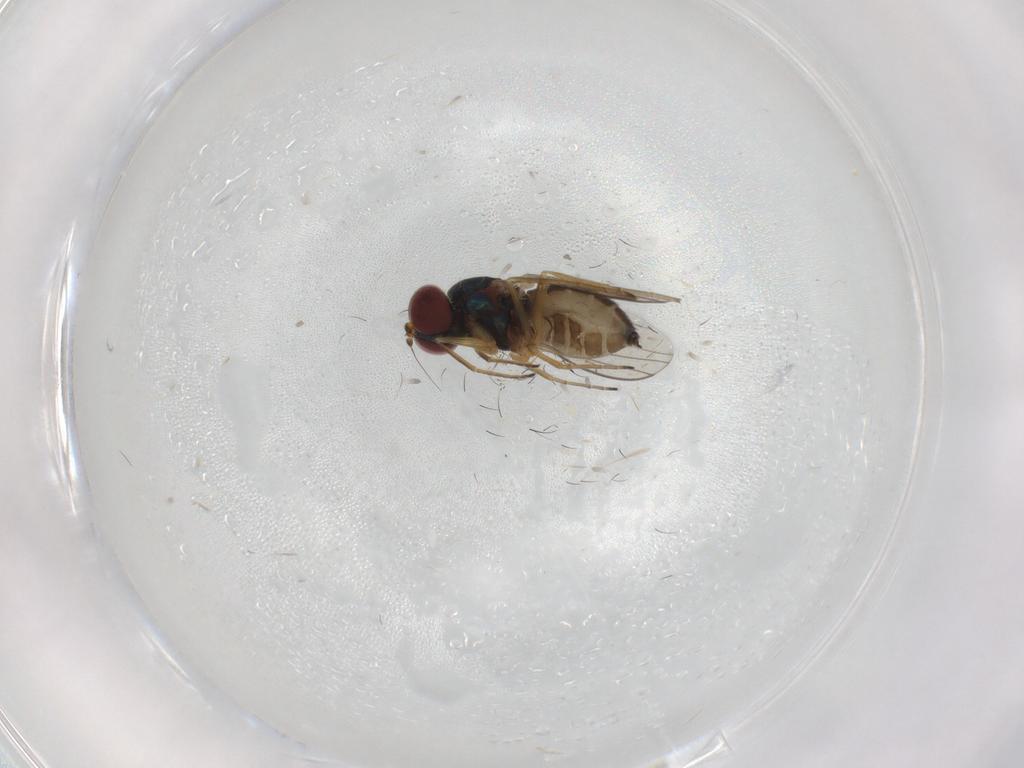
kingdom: Animalia
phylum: Arthropoda
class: Insecta
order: Diptera
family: Dolichopodidae
